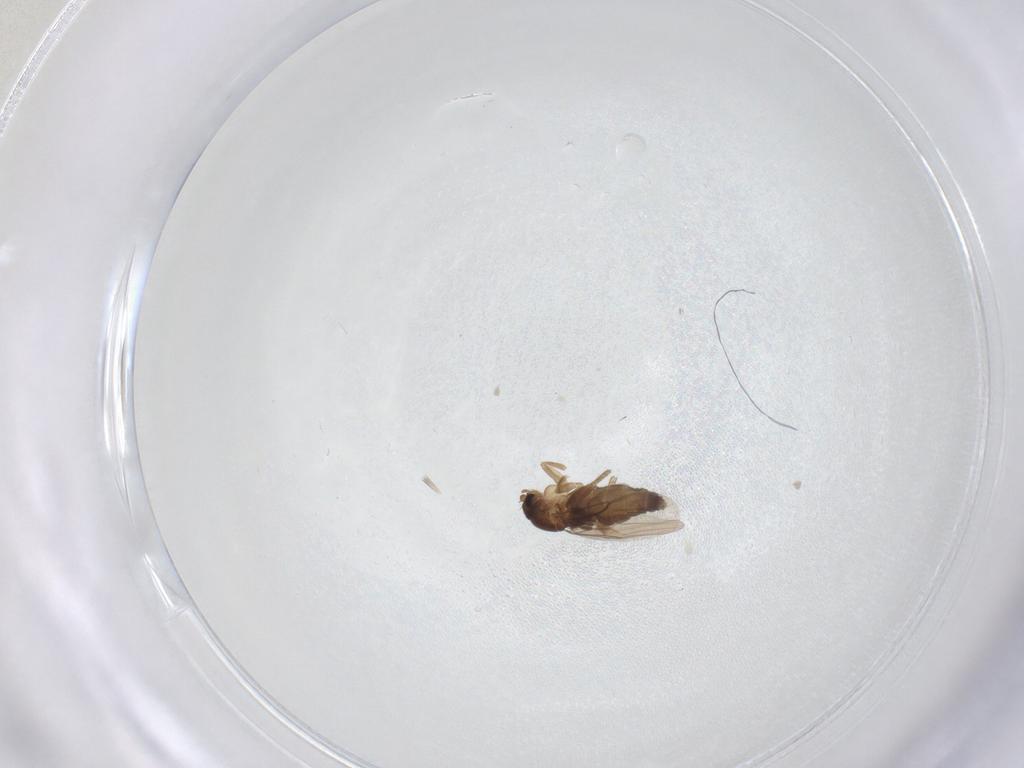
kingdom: Animalia
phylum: Arthropoda
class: Insecta
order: Diptera
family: Phoridae
